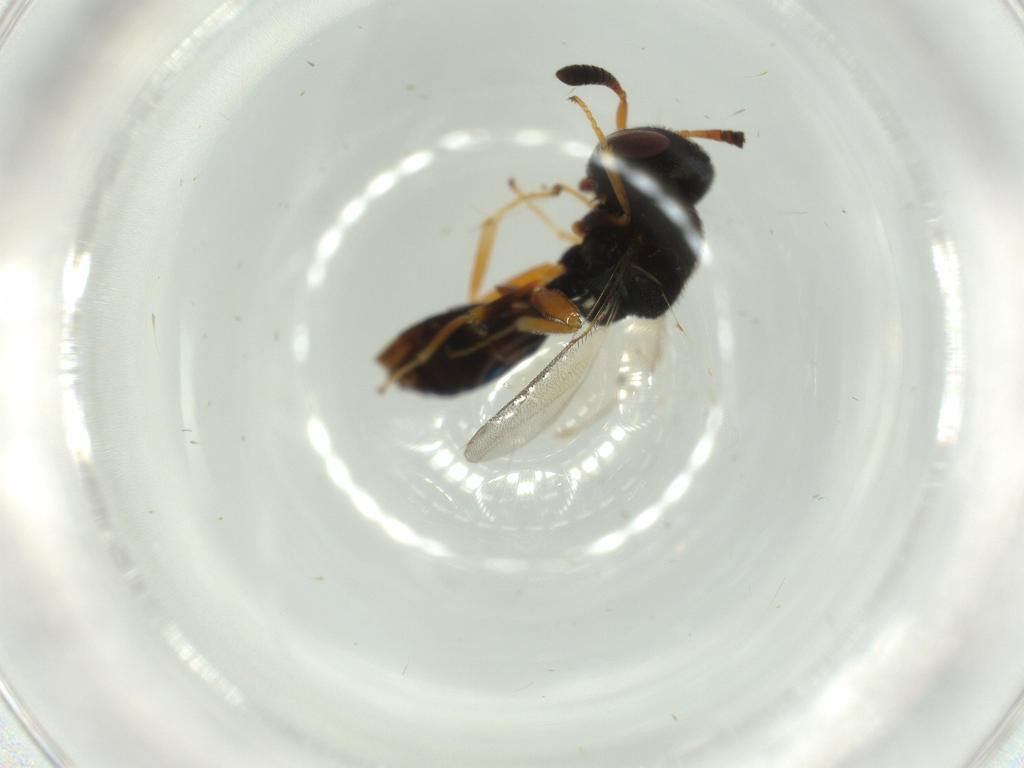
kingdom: Animalia
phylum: Arthropoda
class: Insecta
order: Hymenoptera
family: Agaonidae
